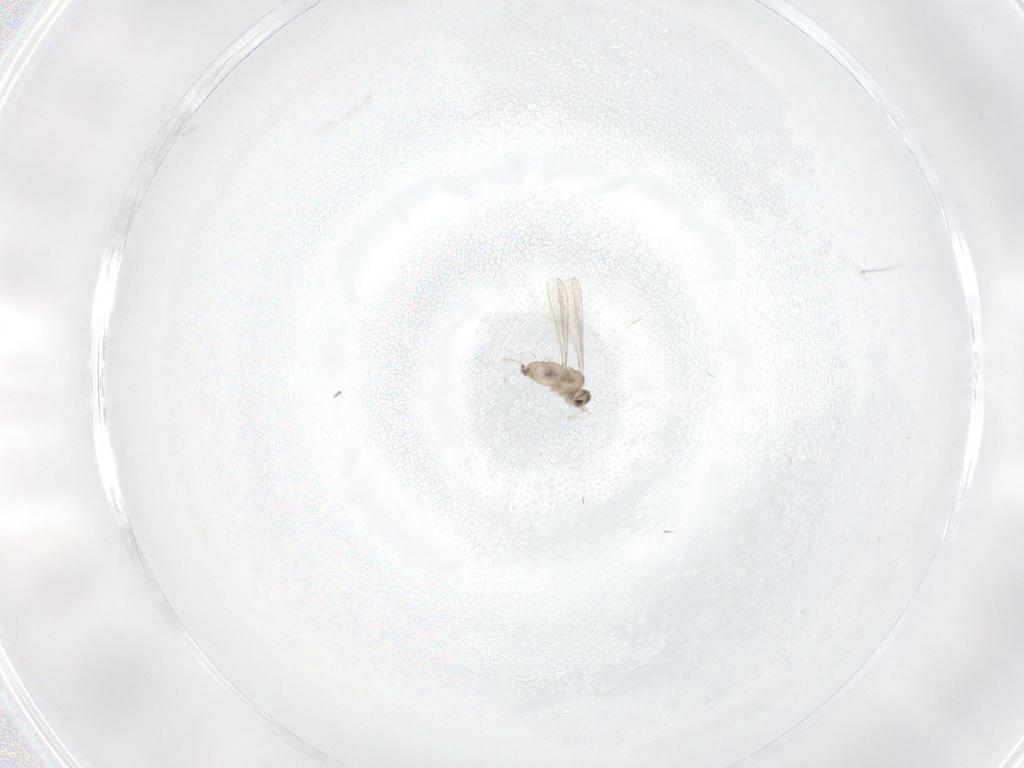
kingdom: Animalia
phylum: Arthropoda
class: Insecta
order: Diptera
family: Cecidomyiidae
